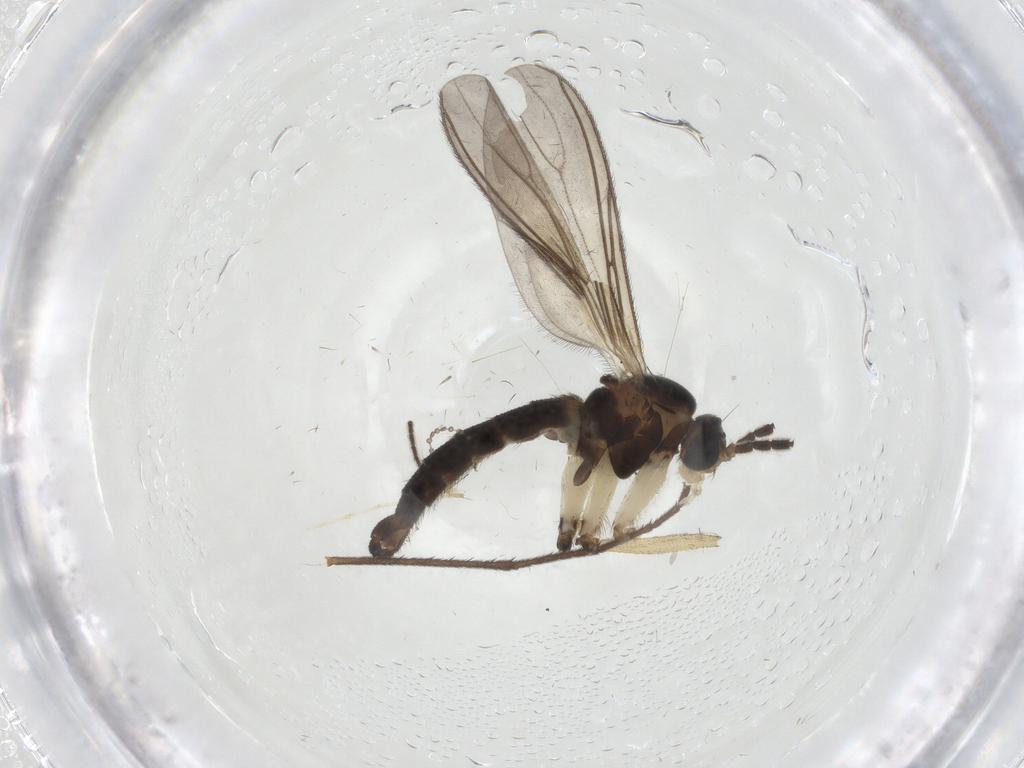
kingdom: Animalia
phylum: Arthropoda
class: Insecta
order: Diptera
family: Sciaridae
